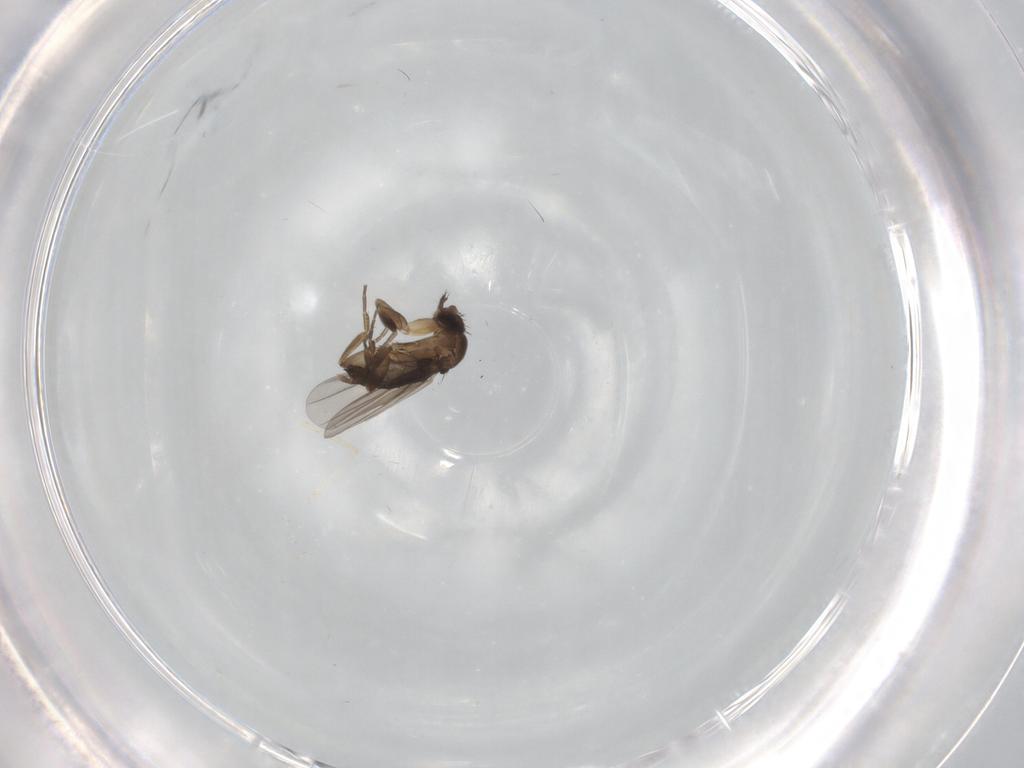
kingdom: Animalia
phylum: Arthropoda
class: Insecta
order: Diptera
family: Phoridae
